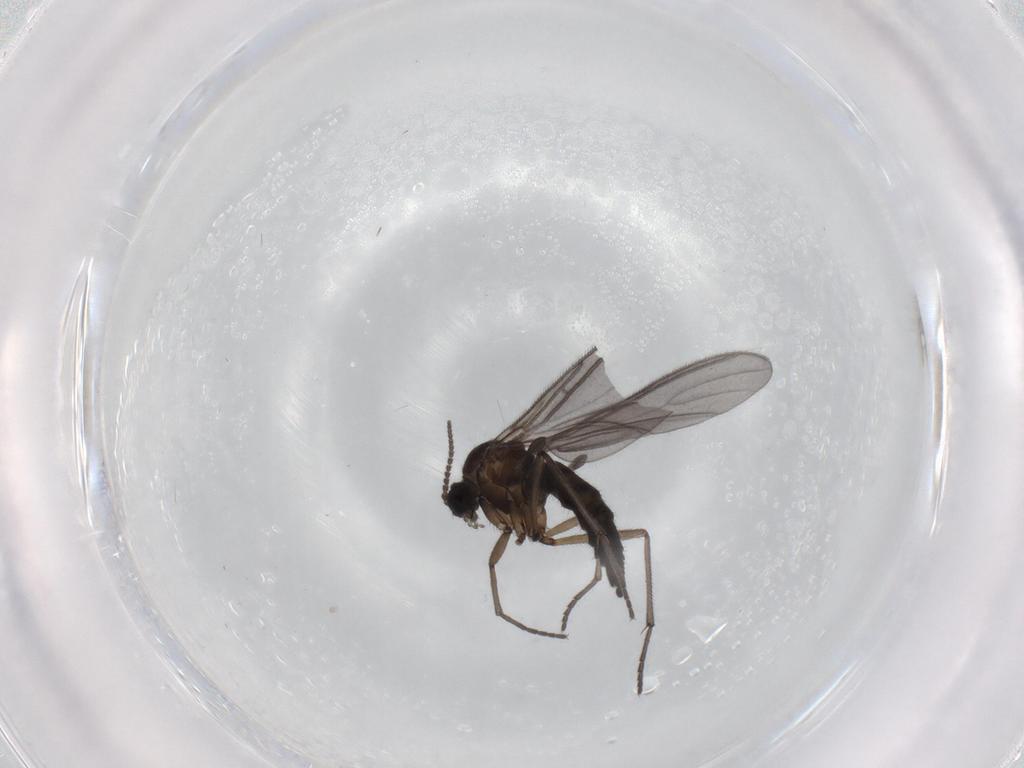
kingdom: Animalia
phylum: Arthropoda
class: Insecta
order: Diptera
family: Sciaridae
